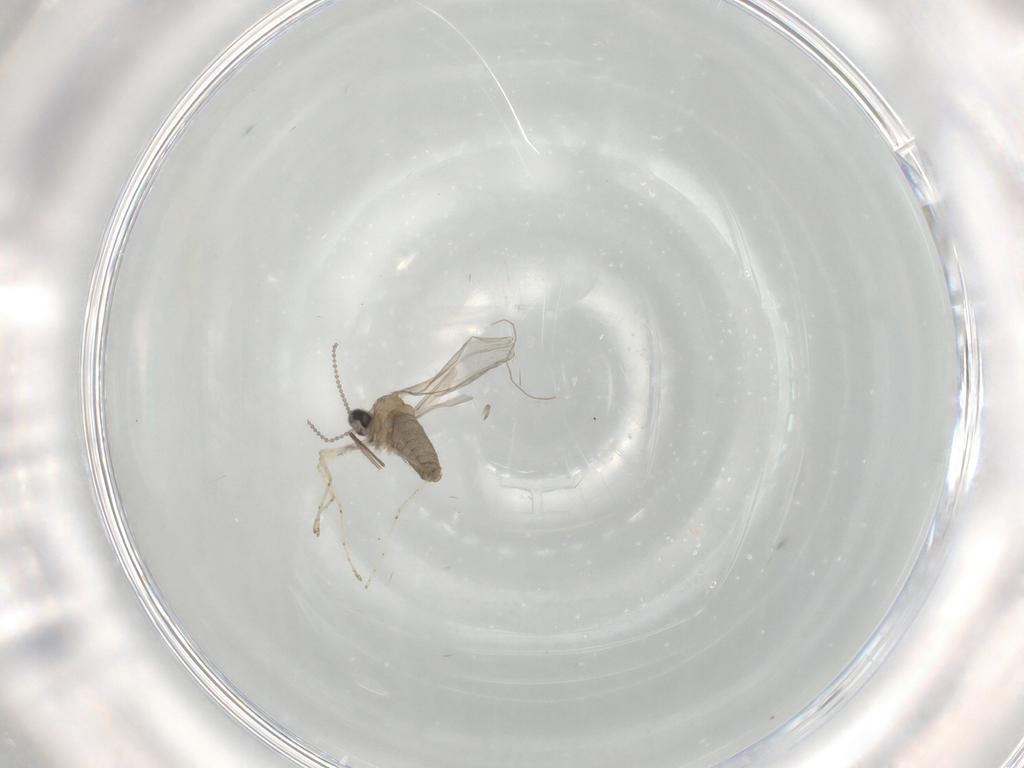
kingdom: Animalia
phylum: Arthropoda
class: Insecta
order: Diptera
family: Chironomidae
